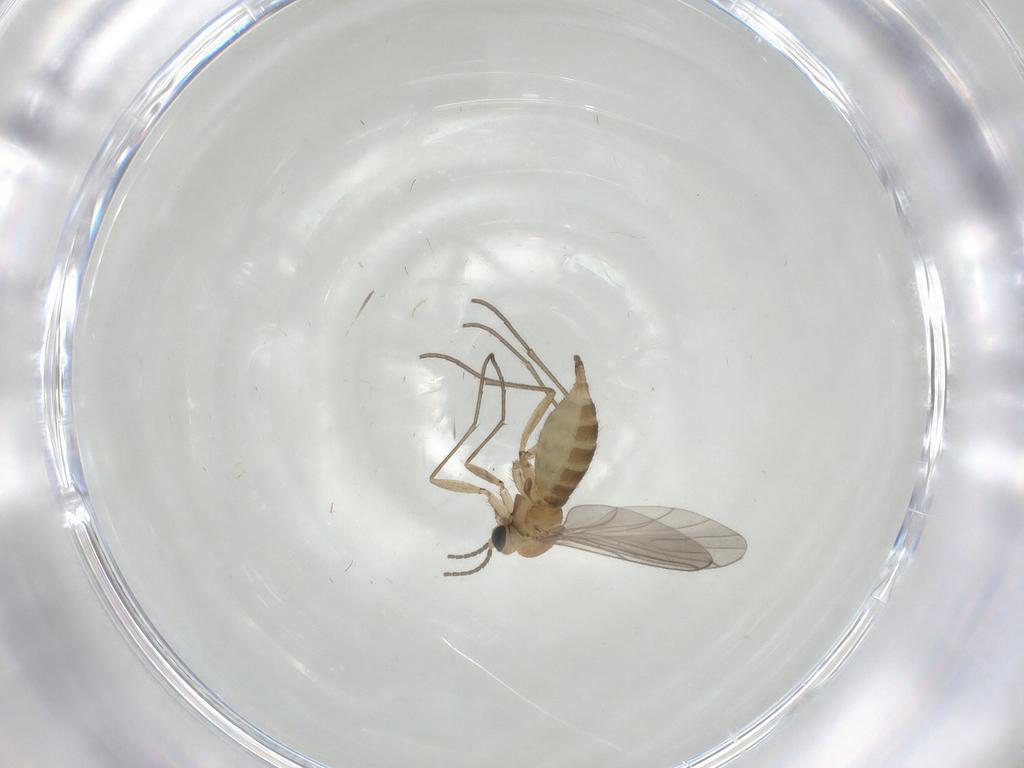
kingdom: Animalia
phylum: Arthropoda
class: Insecta
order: Diptera
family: Sciaridae
